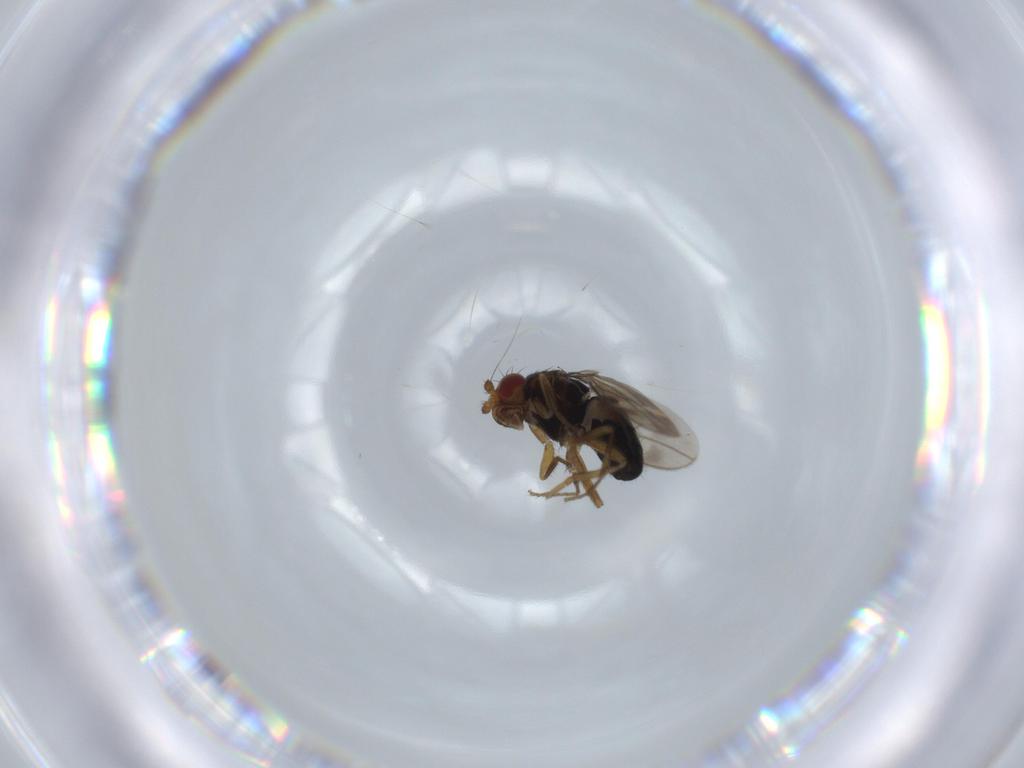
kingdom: Animalia
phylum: Arthropoda
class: Insecta
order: Diptera
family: Sphaeroceridae
